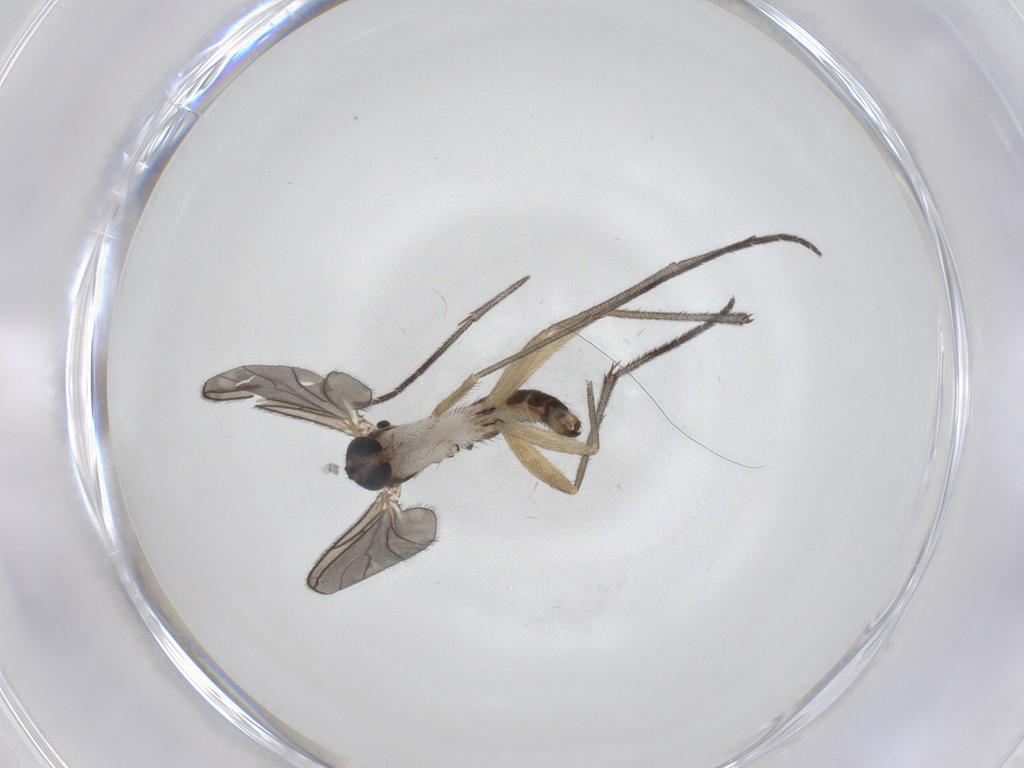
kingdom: Animalia
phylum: Arthropoda
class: Insecta
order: Diptera
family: Sciaridae
